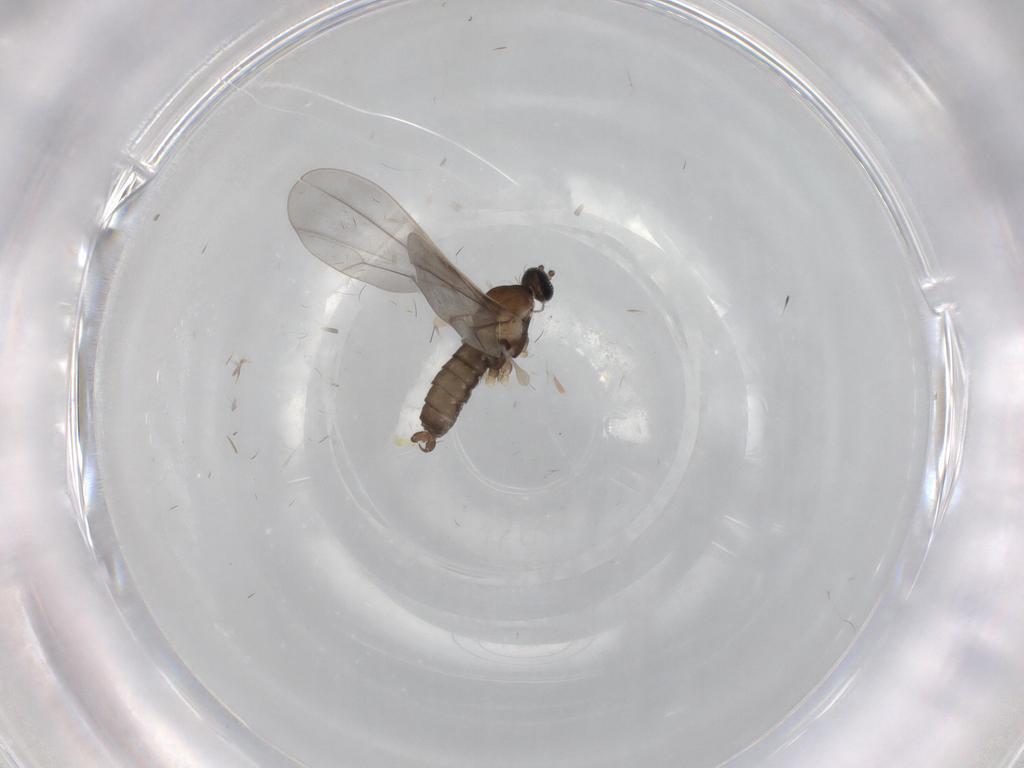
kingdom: Animalia
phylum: Arthropoda
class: Insecta
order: Diptera
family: Cecidomyiidae
